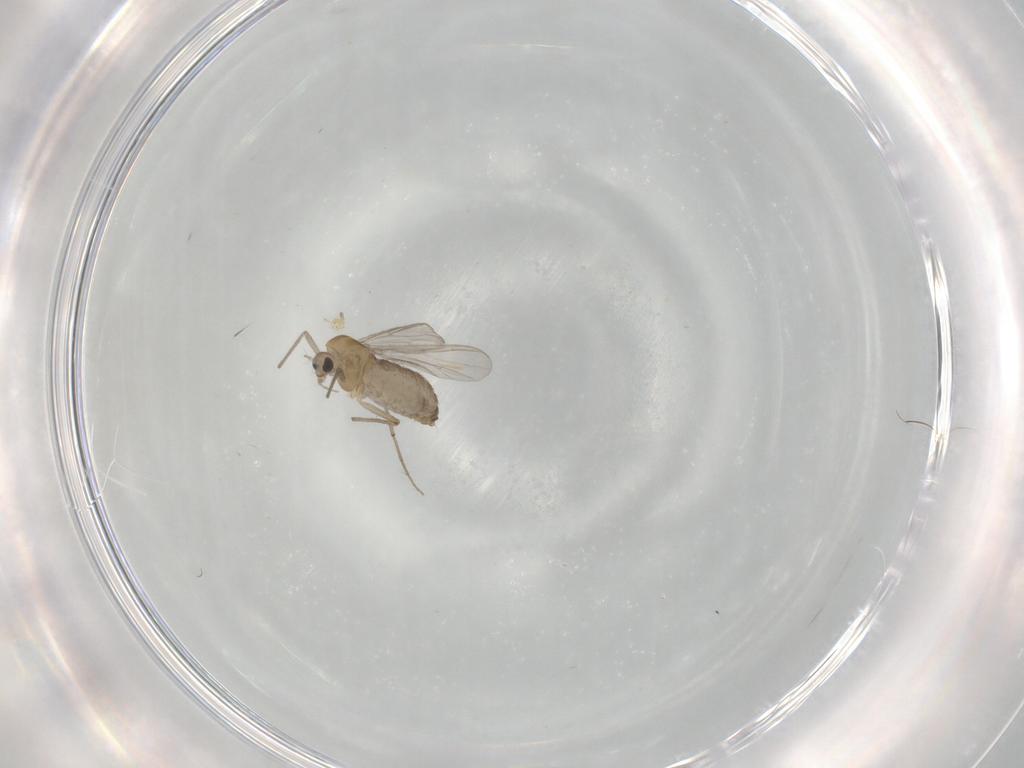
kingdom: Animalia
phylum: Arthropoda
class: Insecta
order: Diptera
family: Chironomidae
